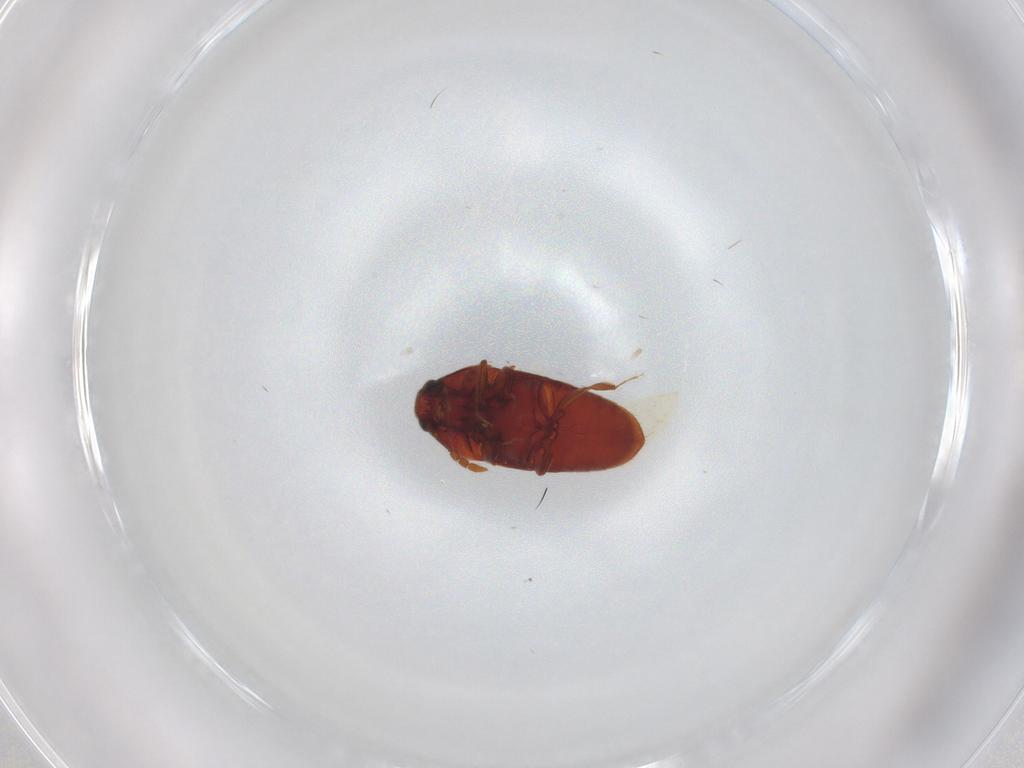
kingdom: Animalia
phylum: Arthropoda
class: Insecta
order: Coleoptera
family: Throscidae
